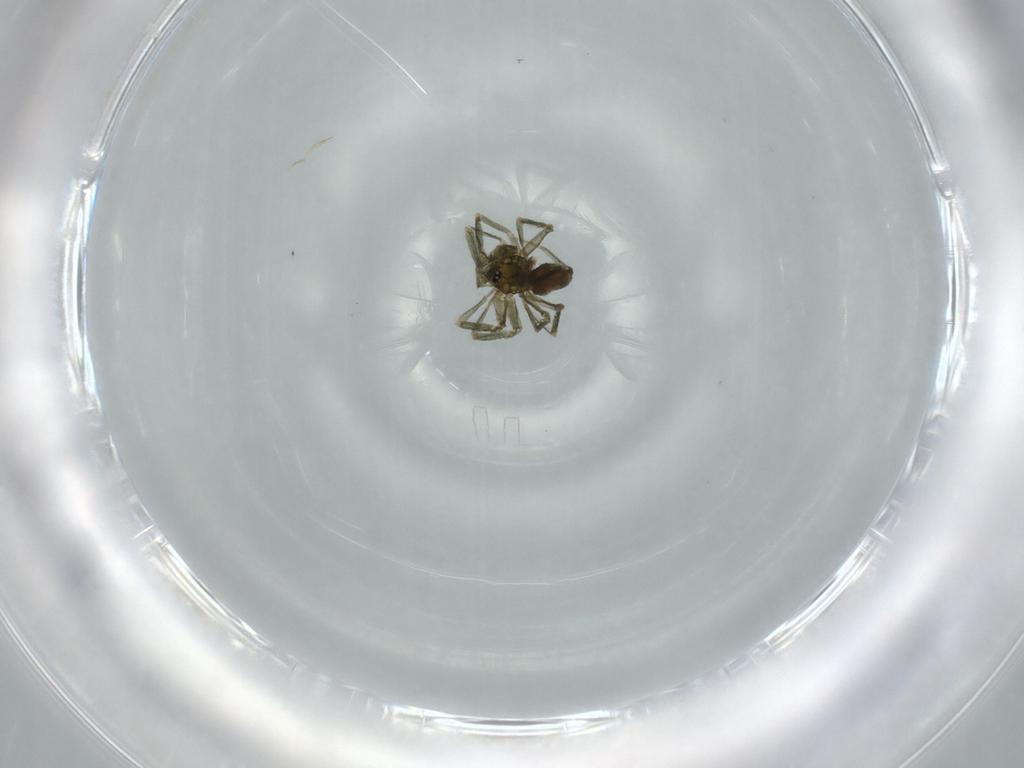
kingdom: Animalia
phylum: Arthropoda
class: Arachnida
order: Araneae
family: Linyphiidae
